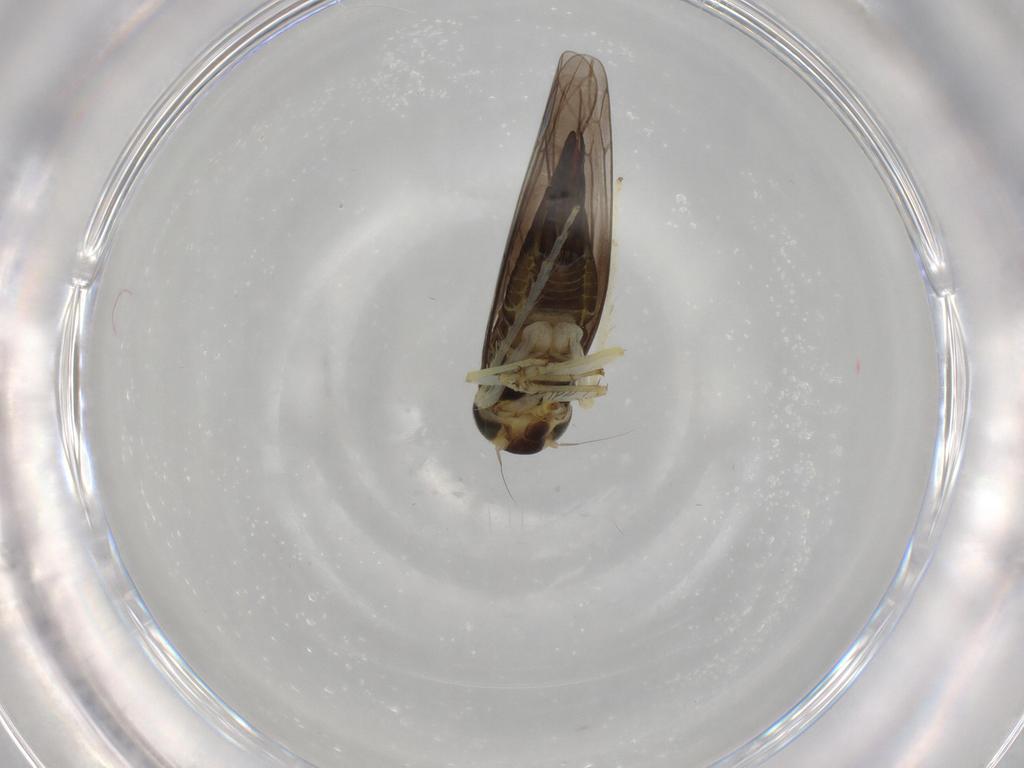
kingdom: Animalia
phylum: Arthropoda
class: Insecta
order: Hemiptera
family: Cicadellidae
